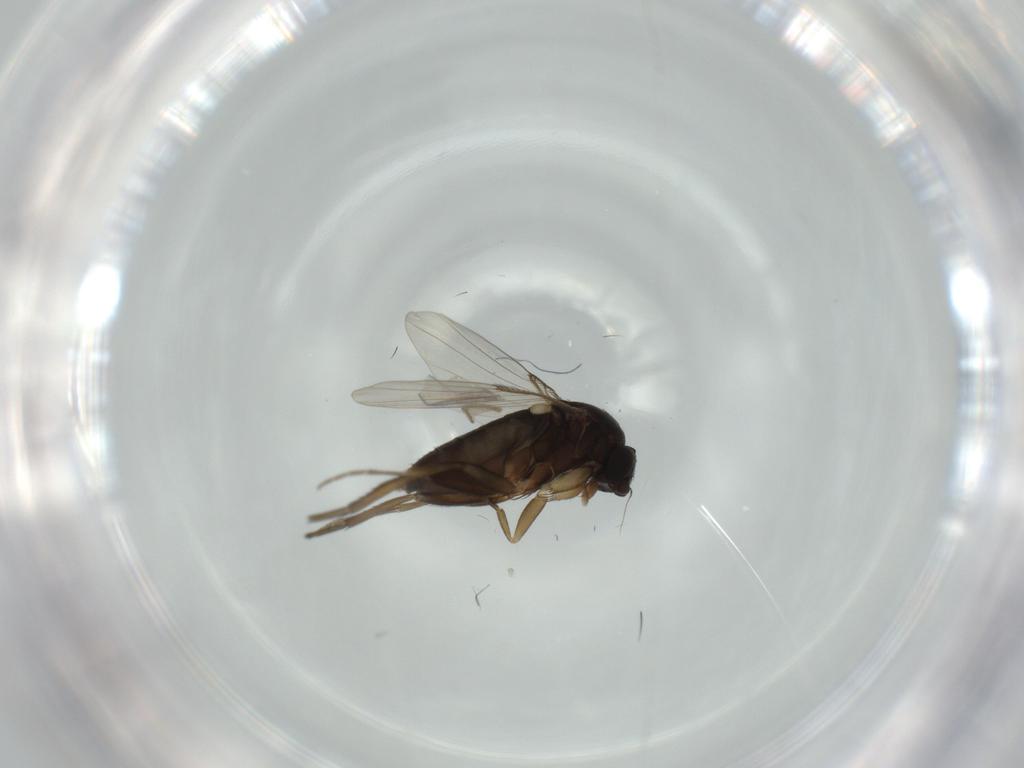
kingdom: Animalia
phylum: Arthropoda
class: Insecta
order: Diptera
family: Phoridae
